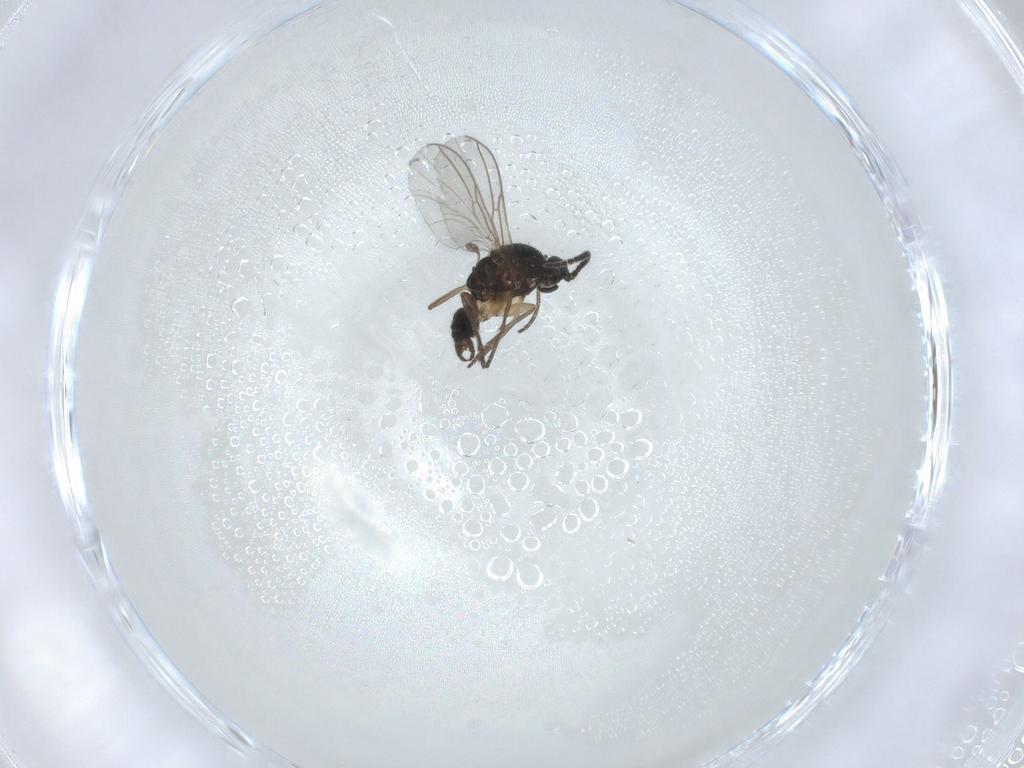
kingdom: Animalia
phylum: Arthropoda
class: Insecta
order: Diptera
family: Sciaridae
